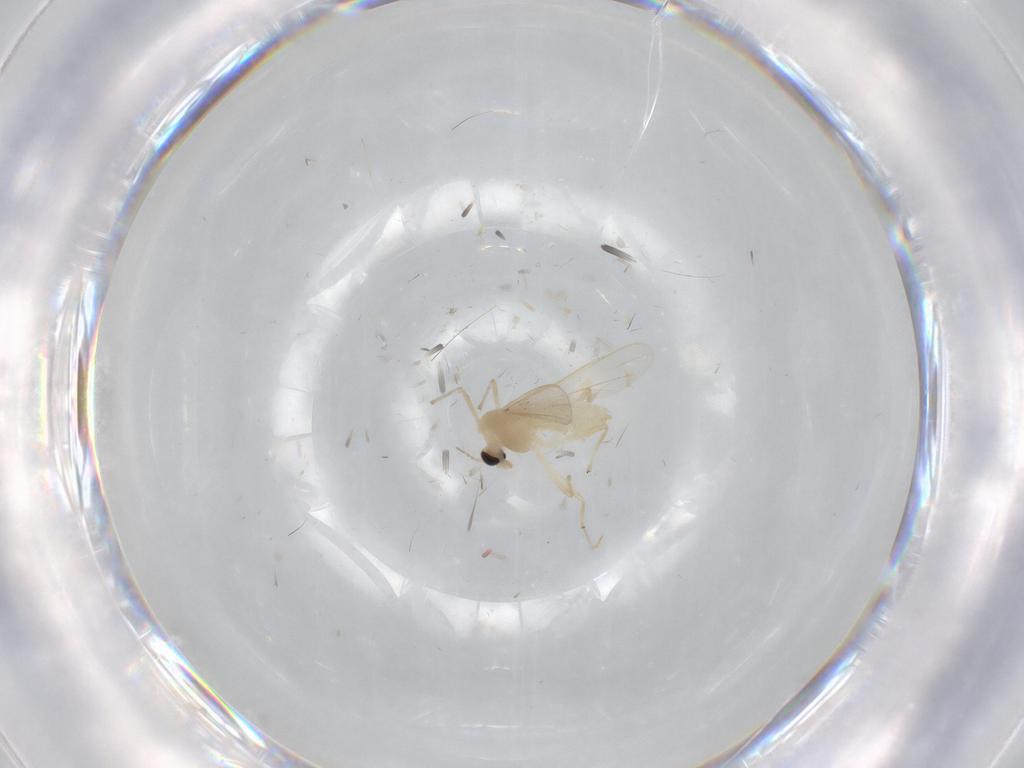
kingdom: Animalia
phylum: Arthropoda
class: Insecta
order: Diptera
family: Chironomidae
